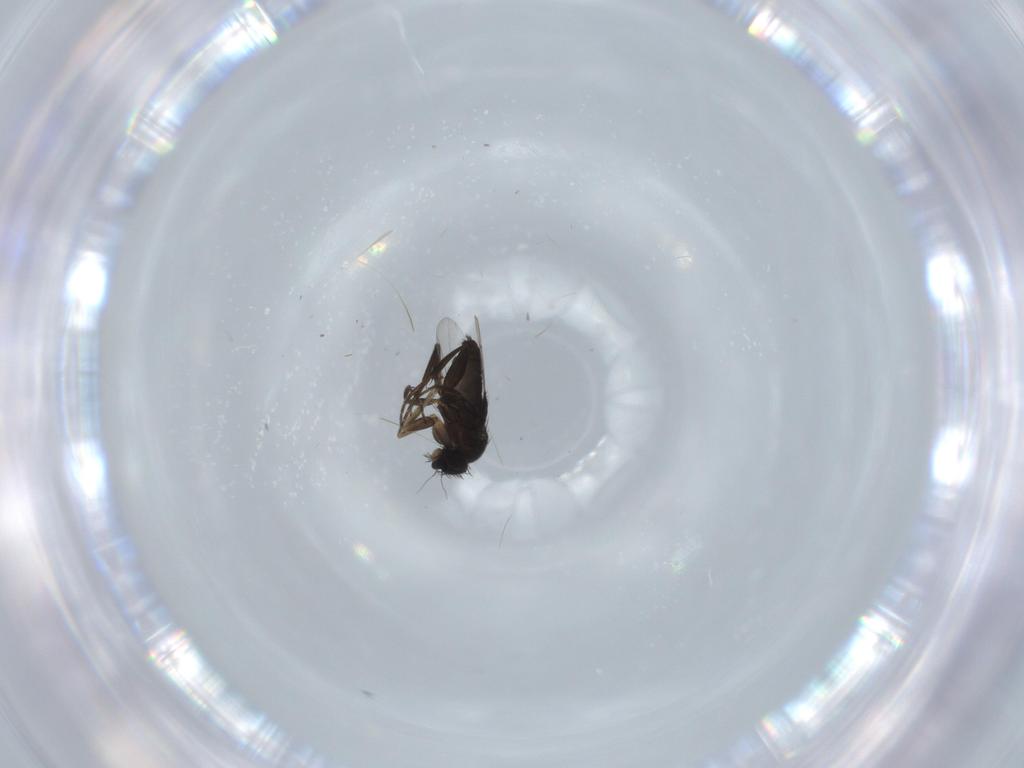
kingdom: Animalia
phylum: Arthropoda
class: Insecta
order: Diptera
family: Phoridae
